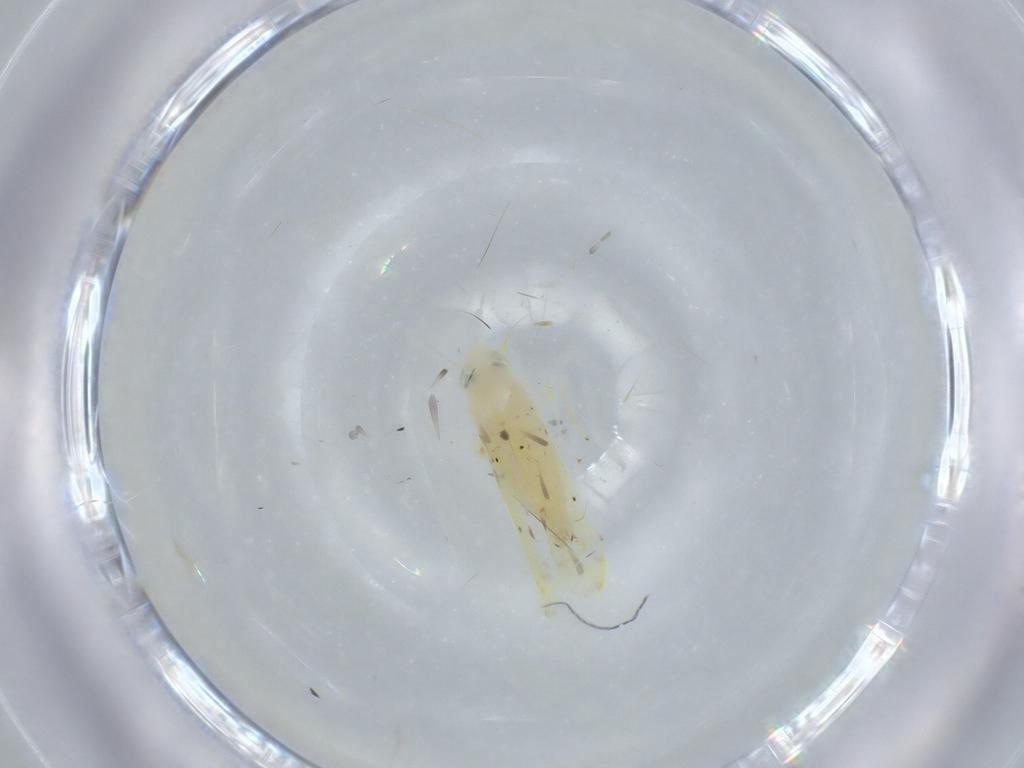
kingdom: Animalia
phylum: Arthropoda
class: Insecta
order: Hemiptera
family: Cicadellidae
